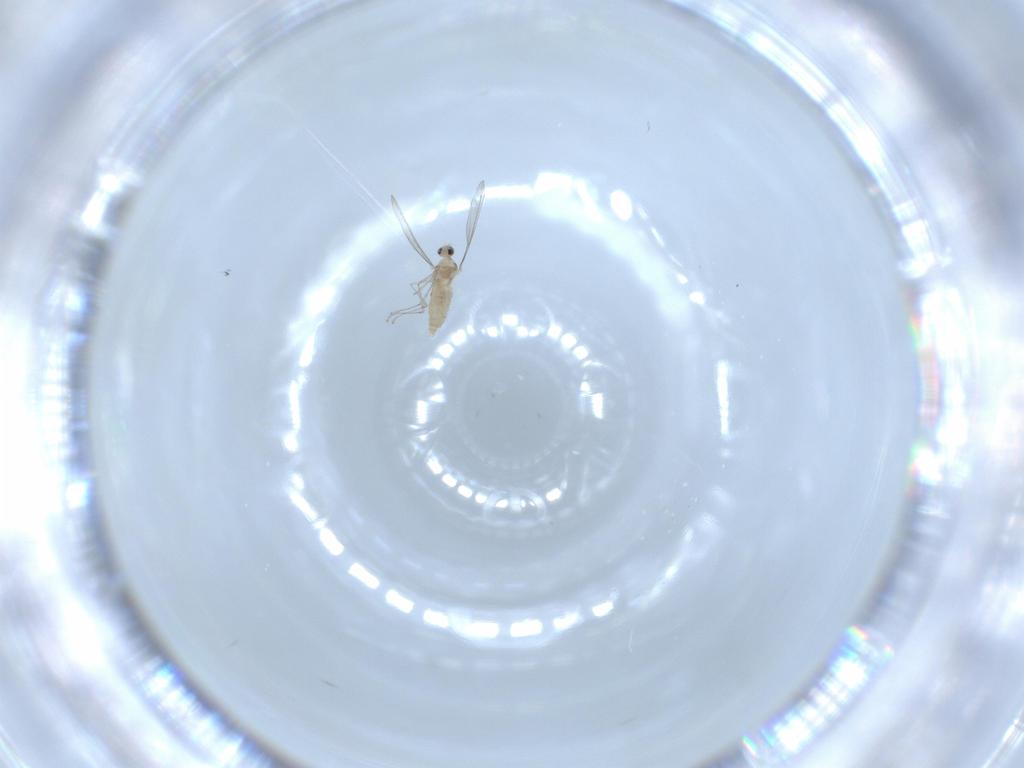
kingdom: Animalia
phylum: Arthropoda
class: Insecta
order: Diptera
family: Cecidomyiidae
